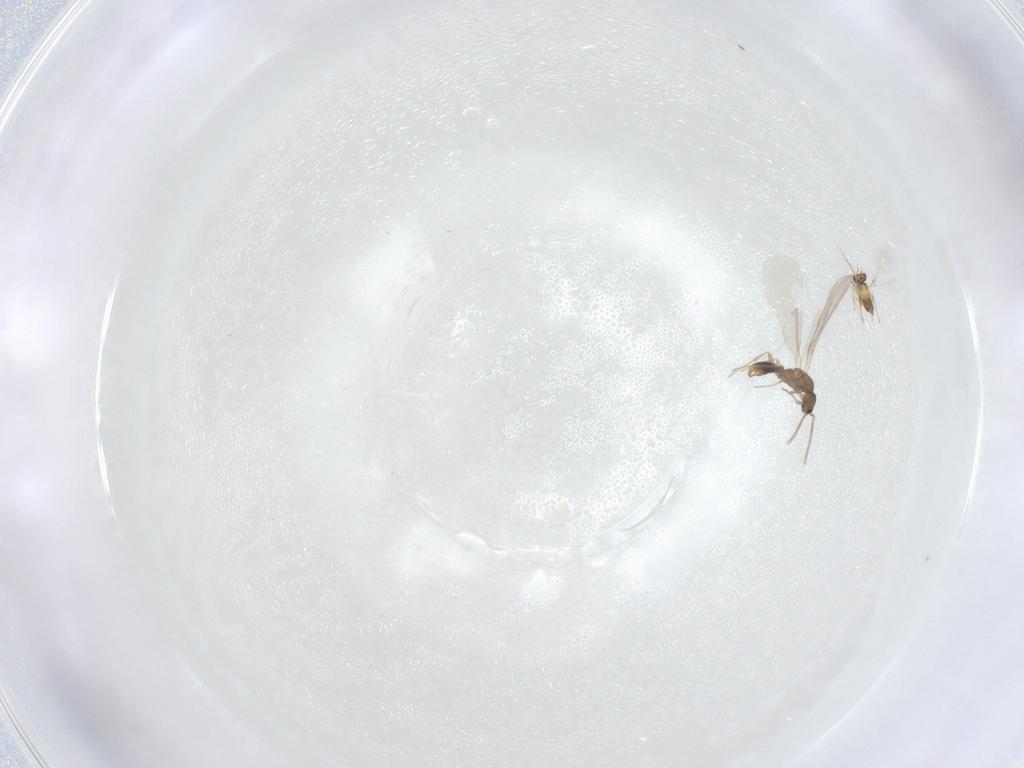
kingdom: Animalia
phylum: Arthropoda
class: Insecta
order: Hymenoptera
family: Formicidae
